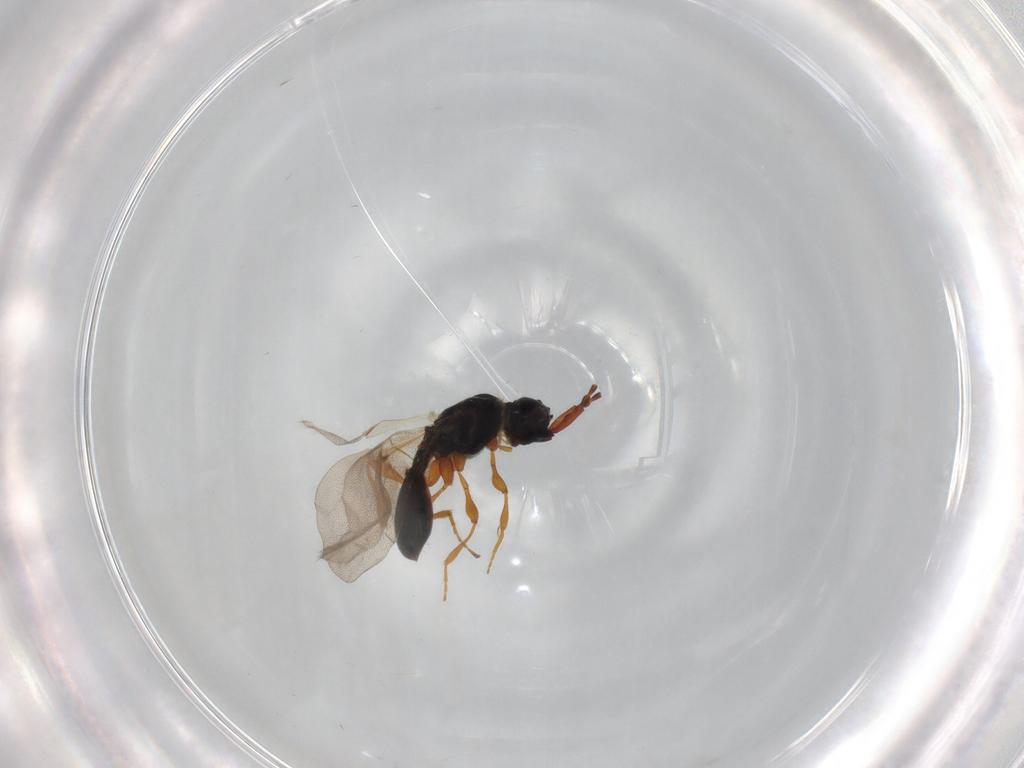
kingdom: Animalia
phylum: Arthropoda
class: Insecta
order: Hymenoptera
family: Diapriidae
